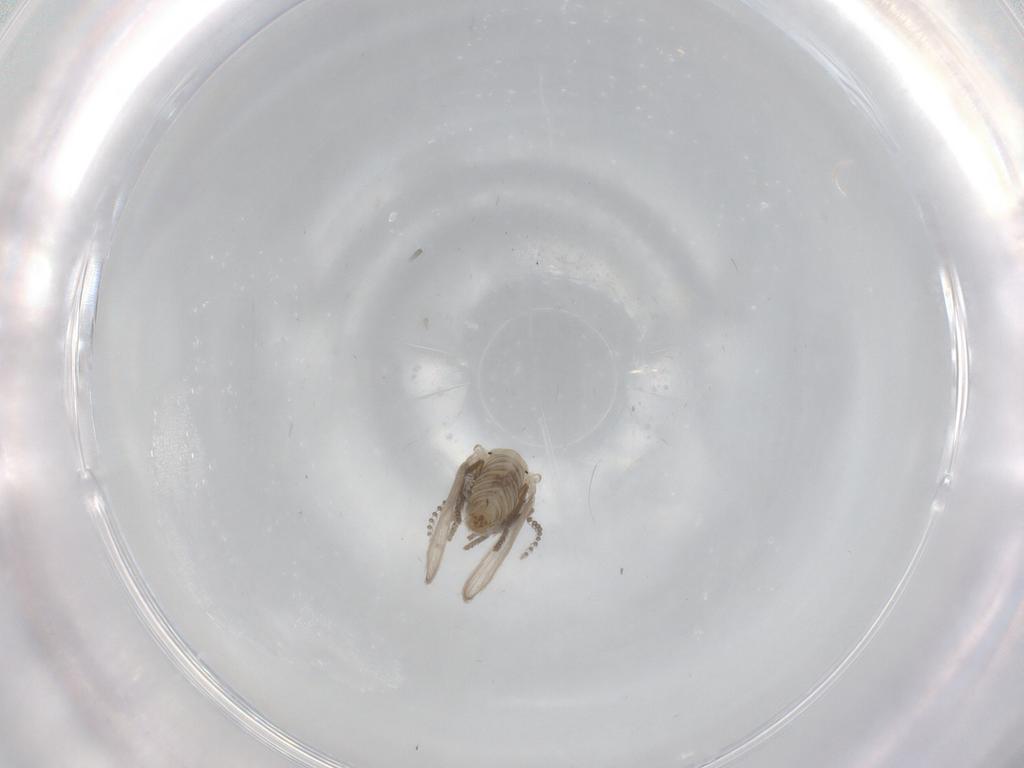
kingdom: Animalia
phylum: Arthropoda
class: Insecta
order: Diptera
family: Psychodidae
